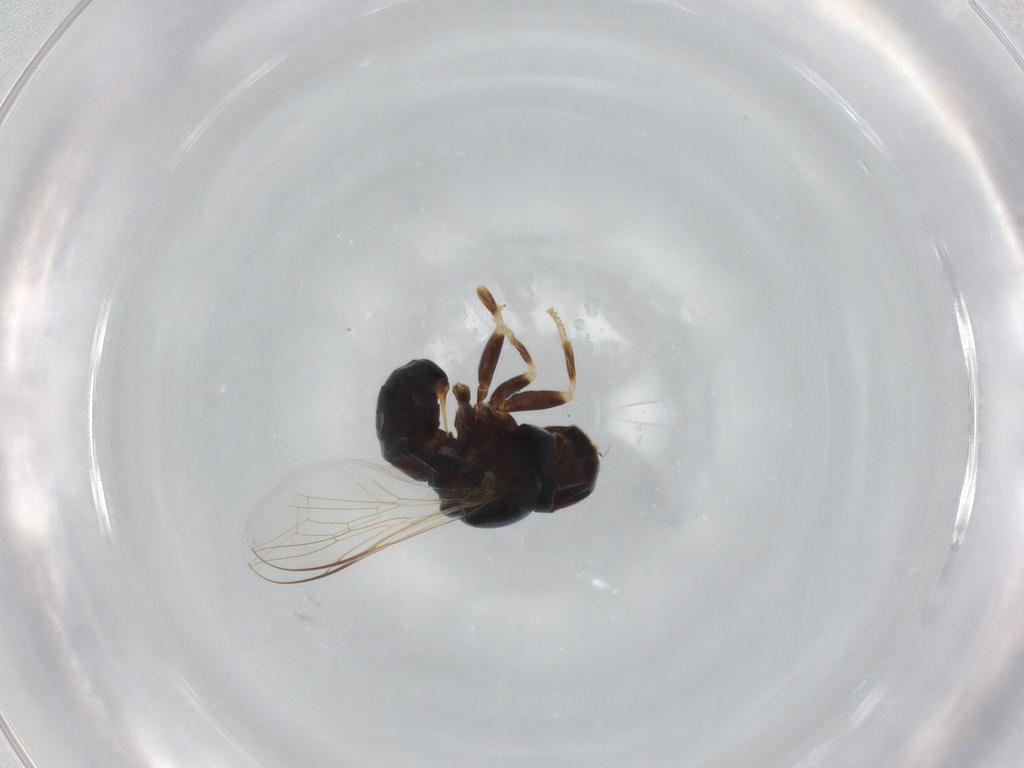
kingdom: Animalia
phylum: Arthropoda
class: Insecta
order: Diptera
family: Pipunculidae
